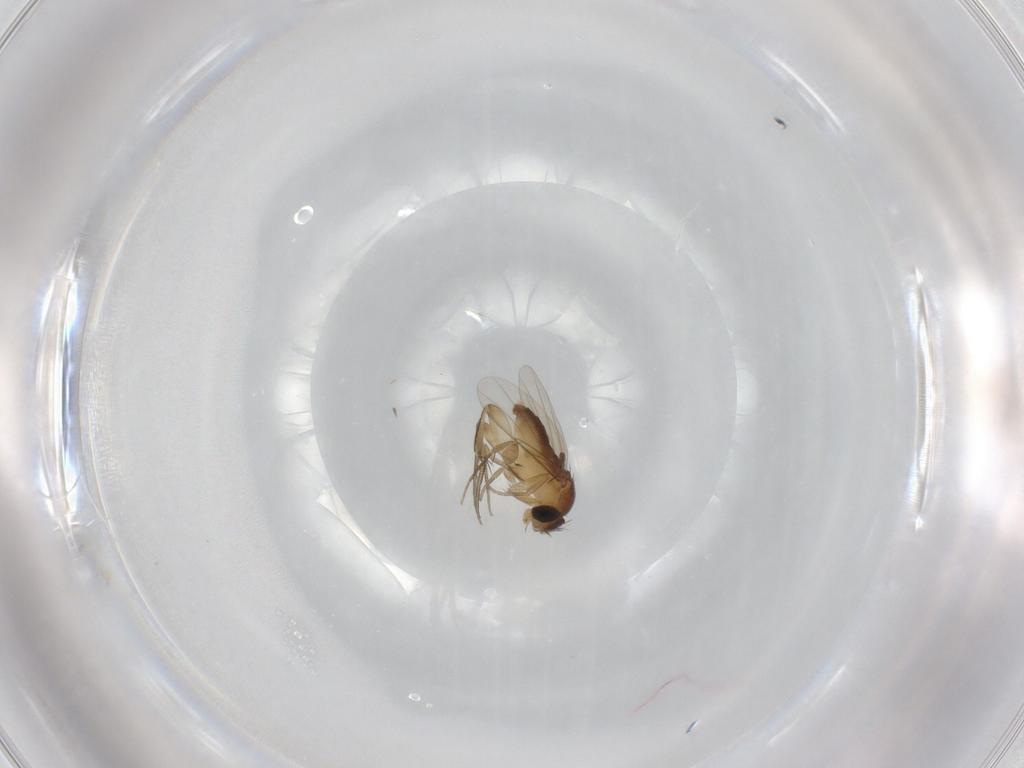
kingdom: Animalia
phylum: Arthropoda
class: Insecta
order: Diptera
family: Phoridae
